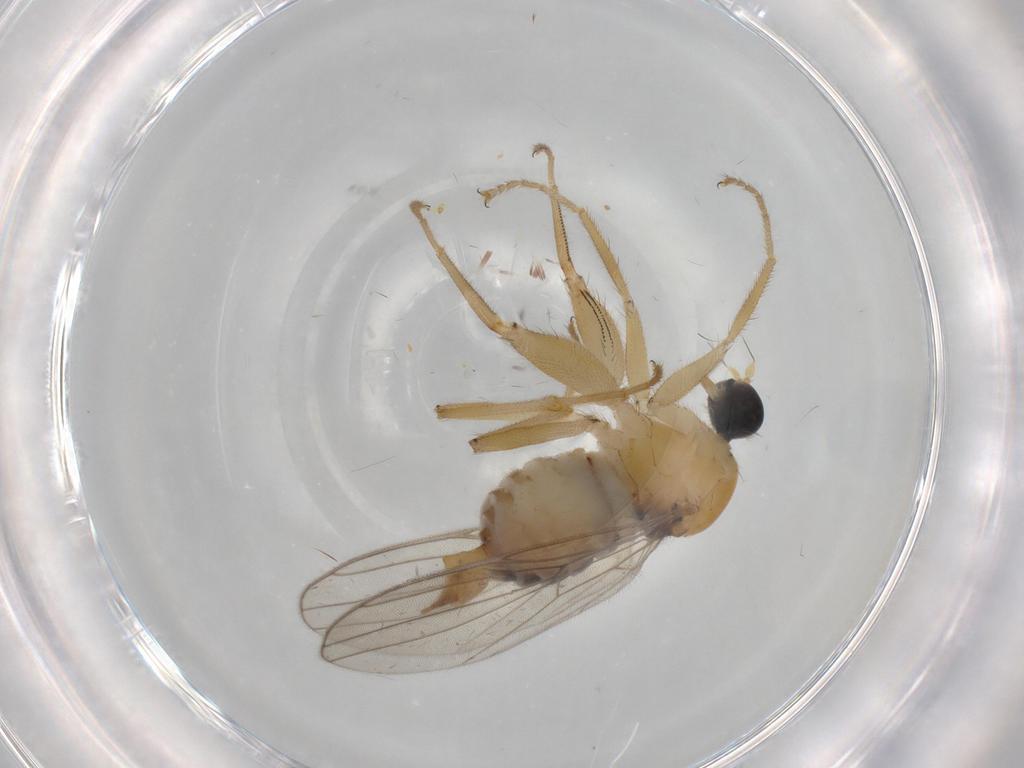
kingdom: Animalia
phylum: Arthropoda
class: Insecta
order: Diptera
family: Hybotidae
